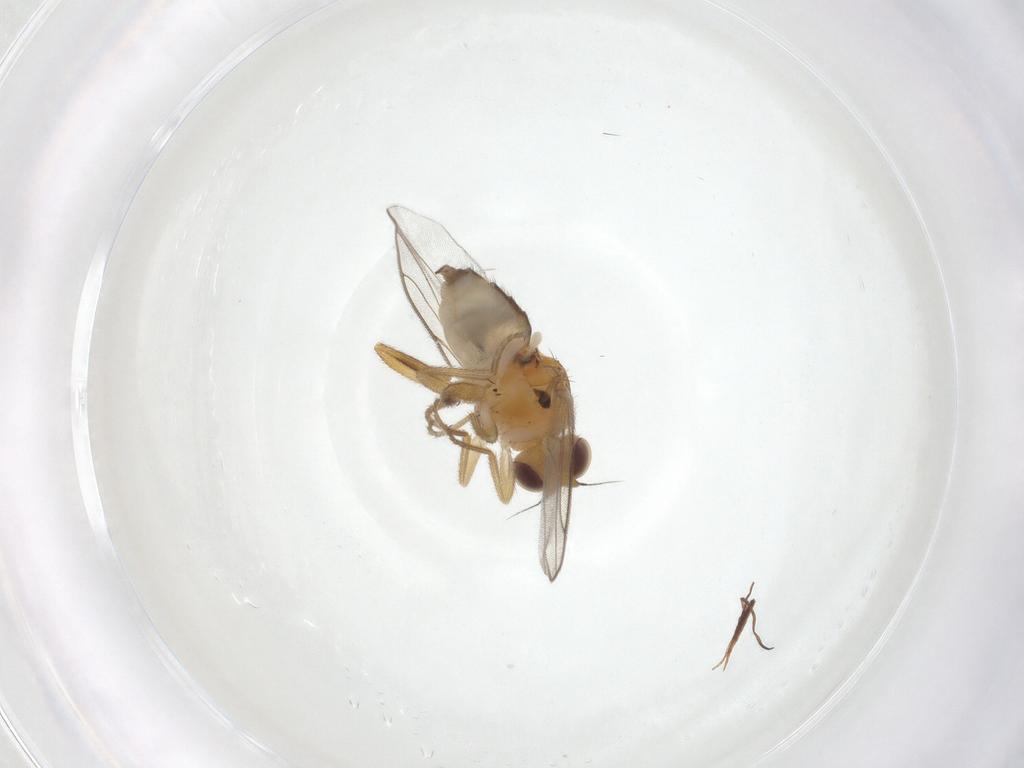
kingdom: Animalia
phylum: Arthropoda
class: Insecta
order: Diptera
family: Chloropidae
